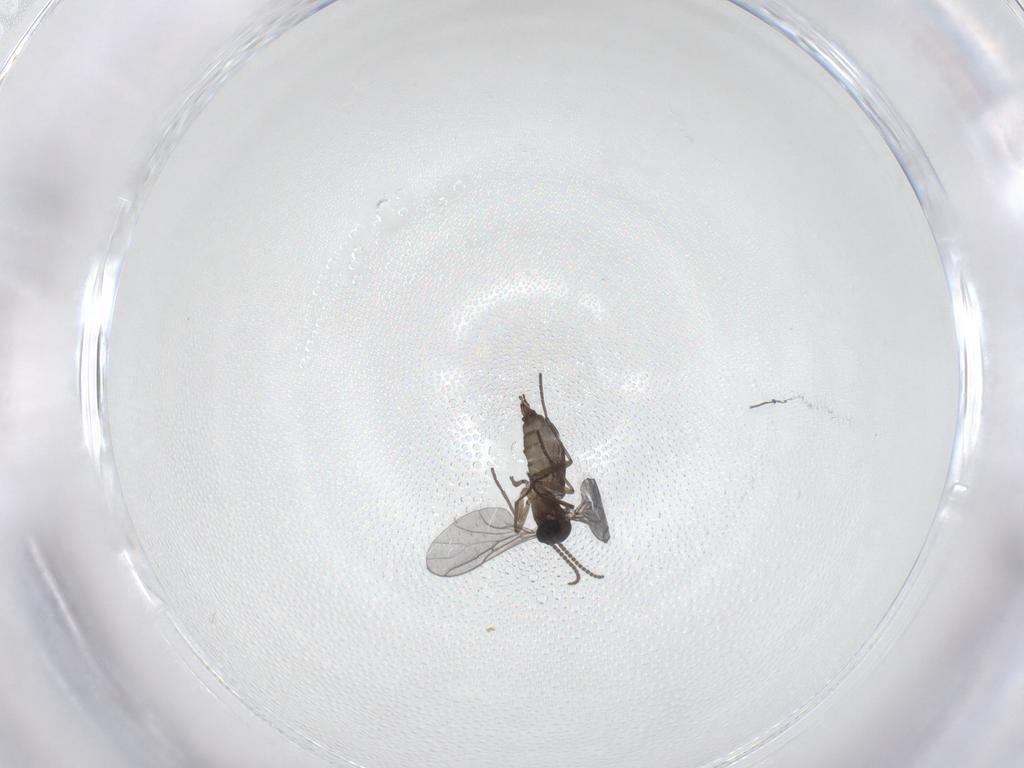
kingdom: Animalia
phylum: Arthropoda
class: Insecta
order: Diptera
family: Sciaridae
